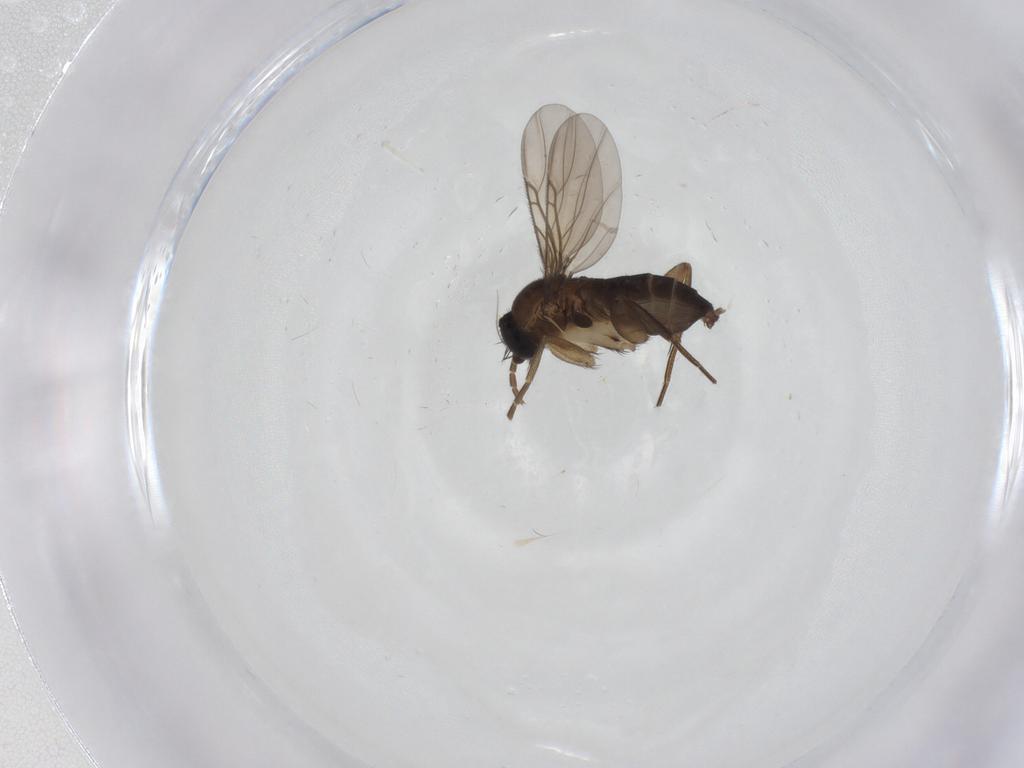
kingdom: Animalia
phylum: Arthropoda
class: Insecta
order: Diptera
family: Phoridae
